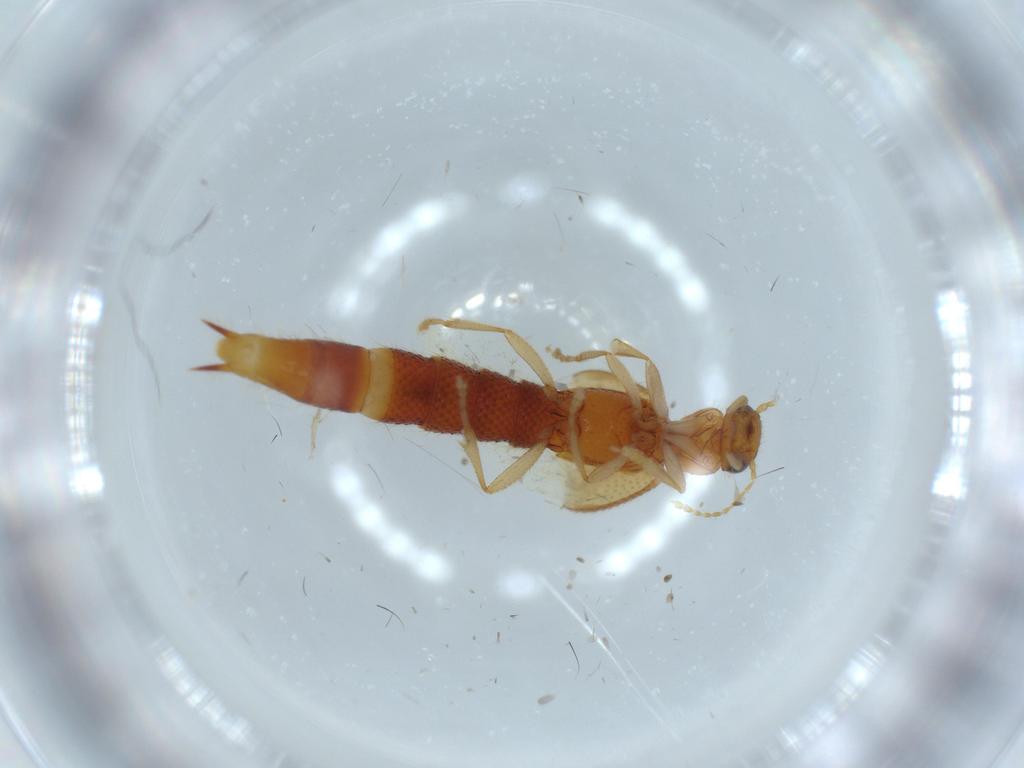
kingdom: Animalia
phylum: Arthropoda
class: Insecta
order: Coleoptera
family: Staphylinidae
